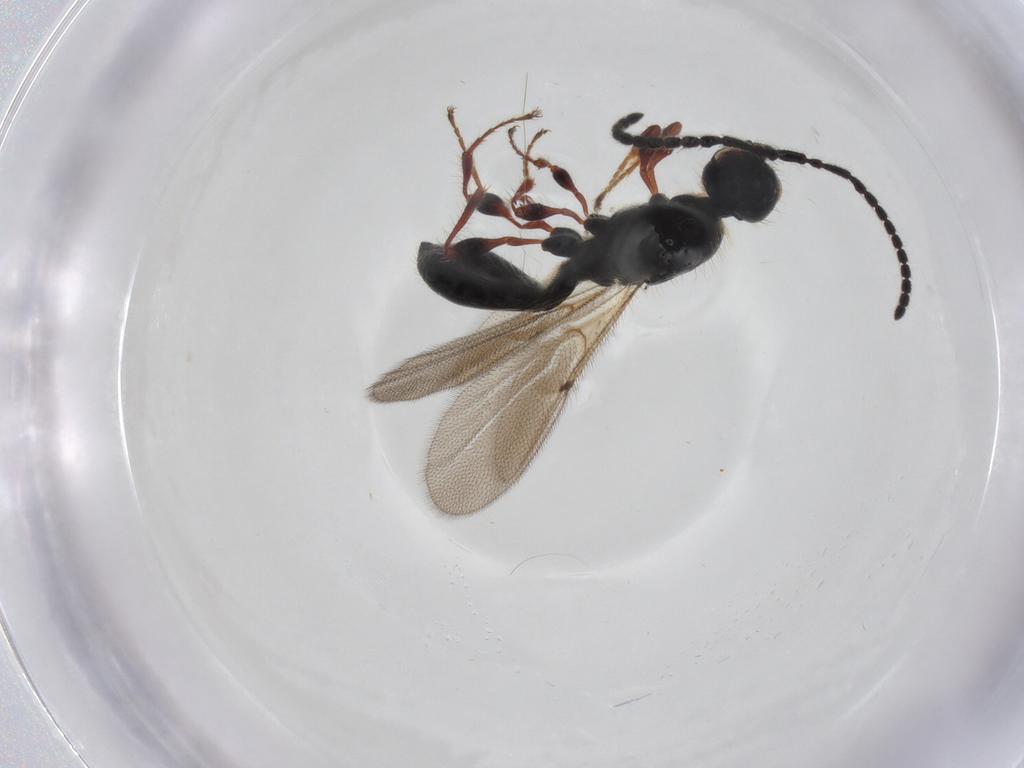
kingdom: Animalia
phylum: Arthropoda
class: Insecta
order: Hymenoptera
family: Diapriidae
